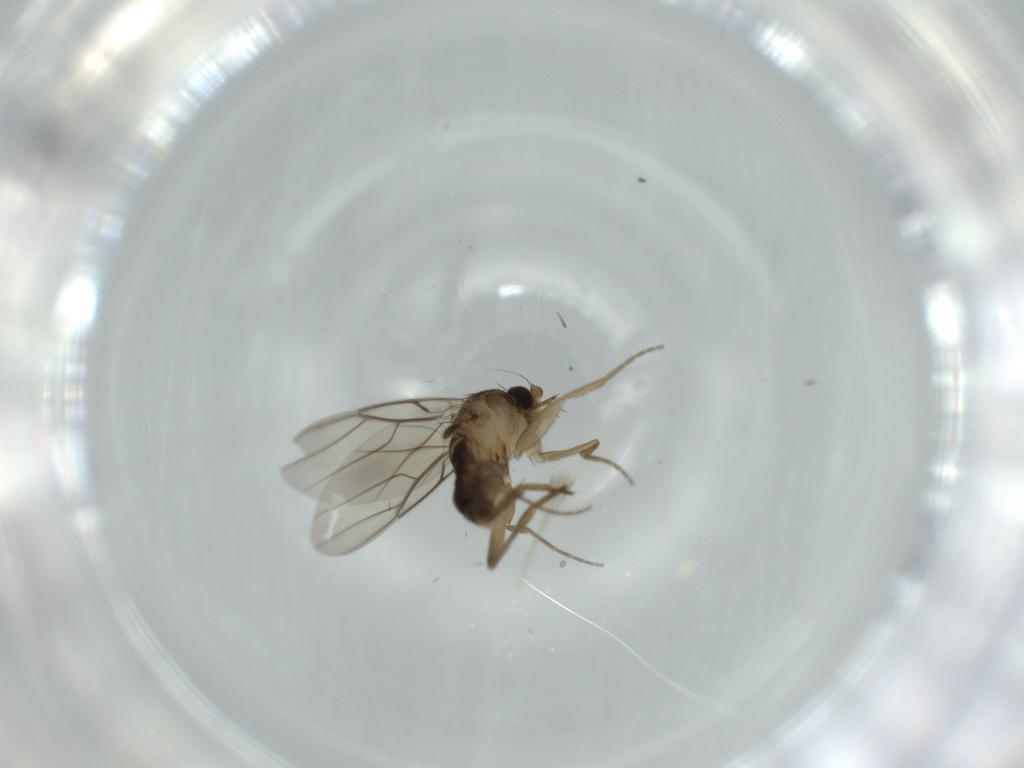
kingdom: Animalia
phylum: Arthropoda
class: Insecta
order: Diptera
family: Phoridae
